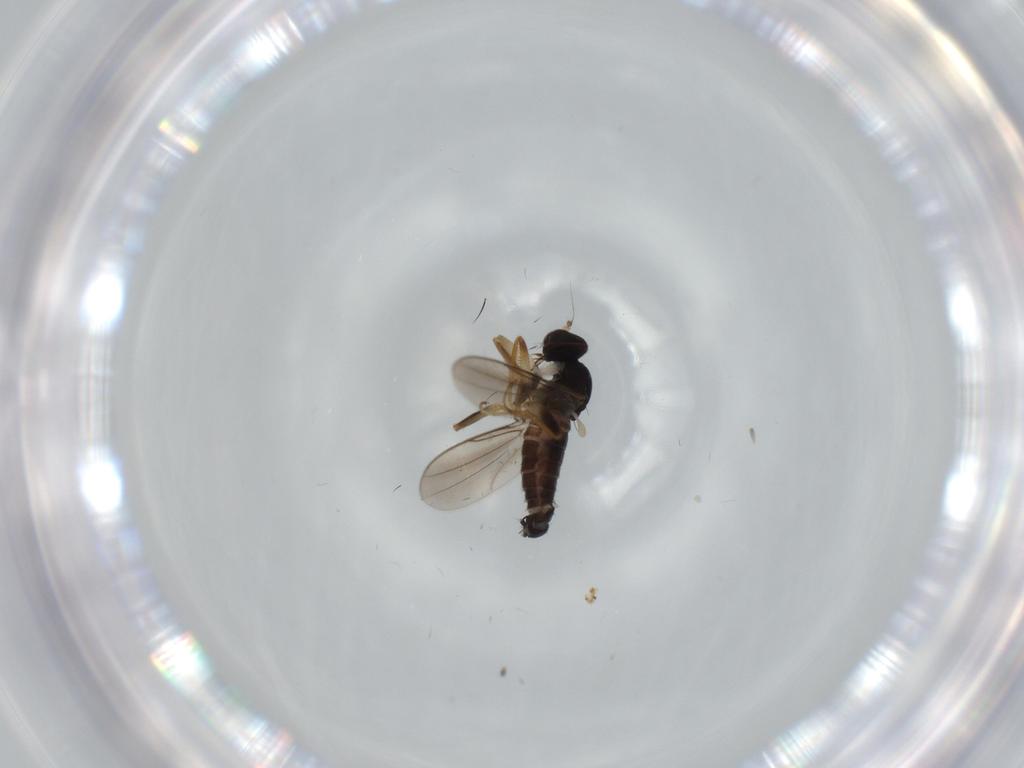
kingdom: Animalia
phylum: Arthropoda
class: Insecta
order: Diptera
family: Hybotidae
